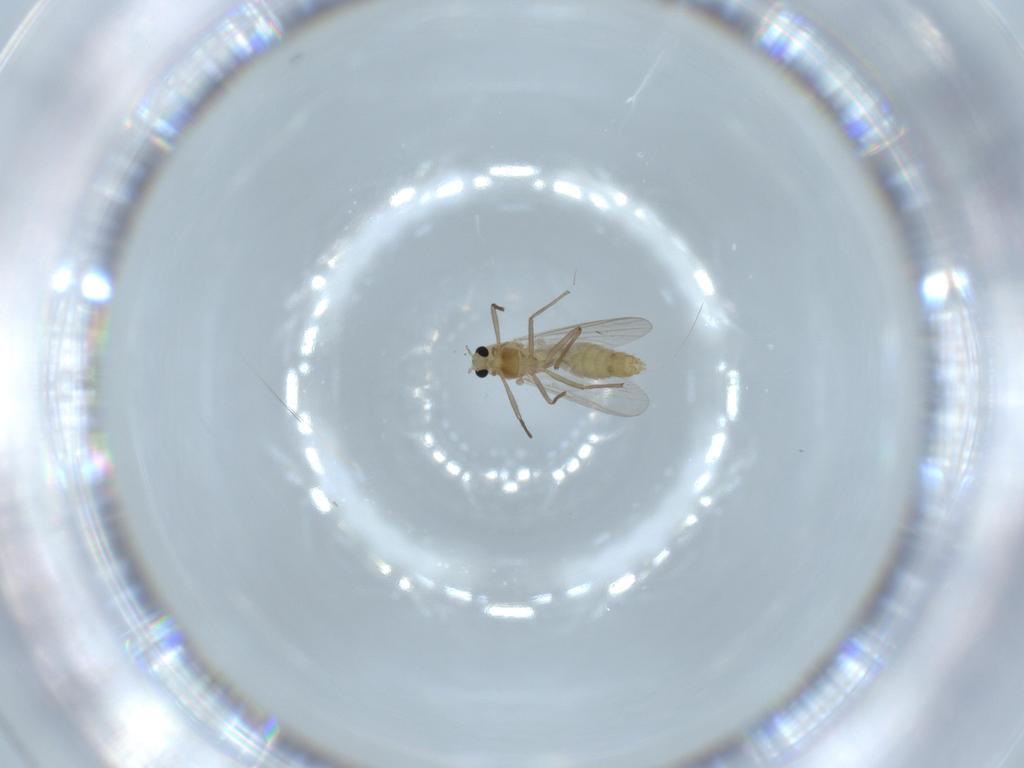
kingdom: Animalia
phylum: Arthropoda
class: Insecta
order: Diptera
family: Chironomidae
